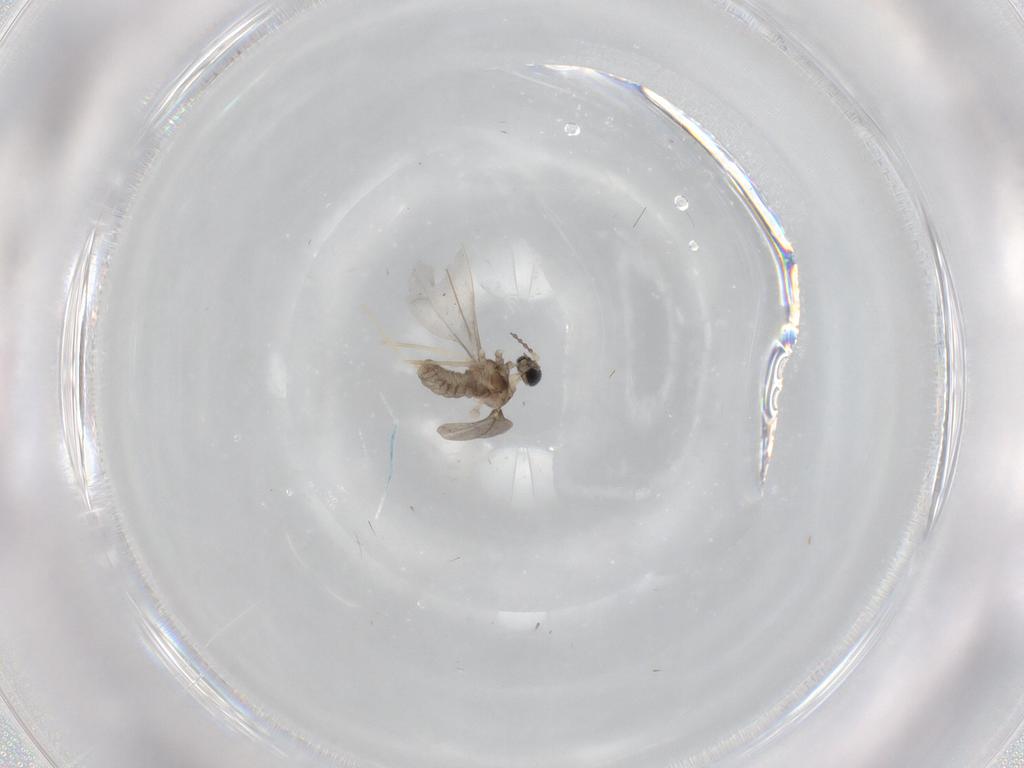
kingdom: Animalia
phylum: Arthropoda
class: Insecta
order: Diptera
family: Cecidomyiidae
